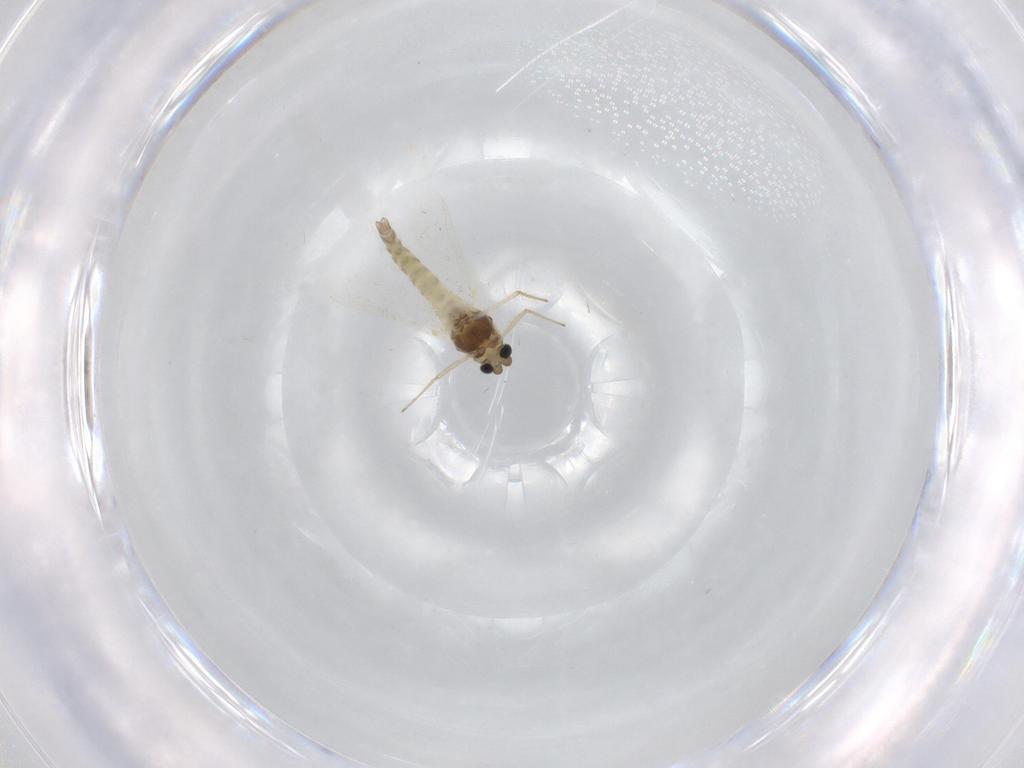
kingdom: Animalia
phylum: Arthropoda
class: Insecta
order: Diptera
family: Chironomidae
